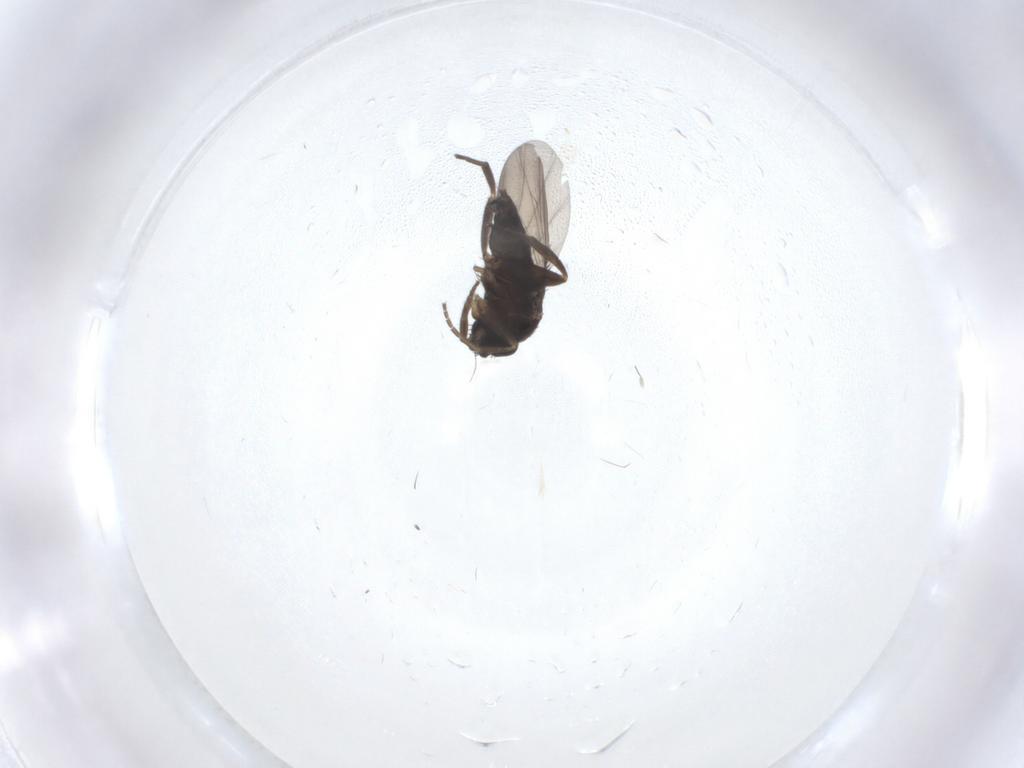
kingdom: Animalia
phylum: Arthropoda
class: Insecta
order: Diptera
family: Phoridae
